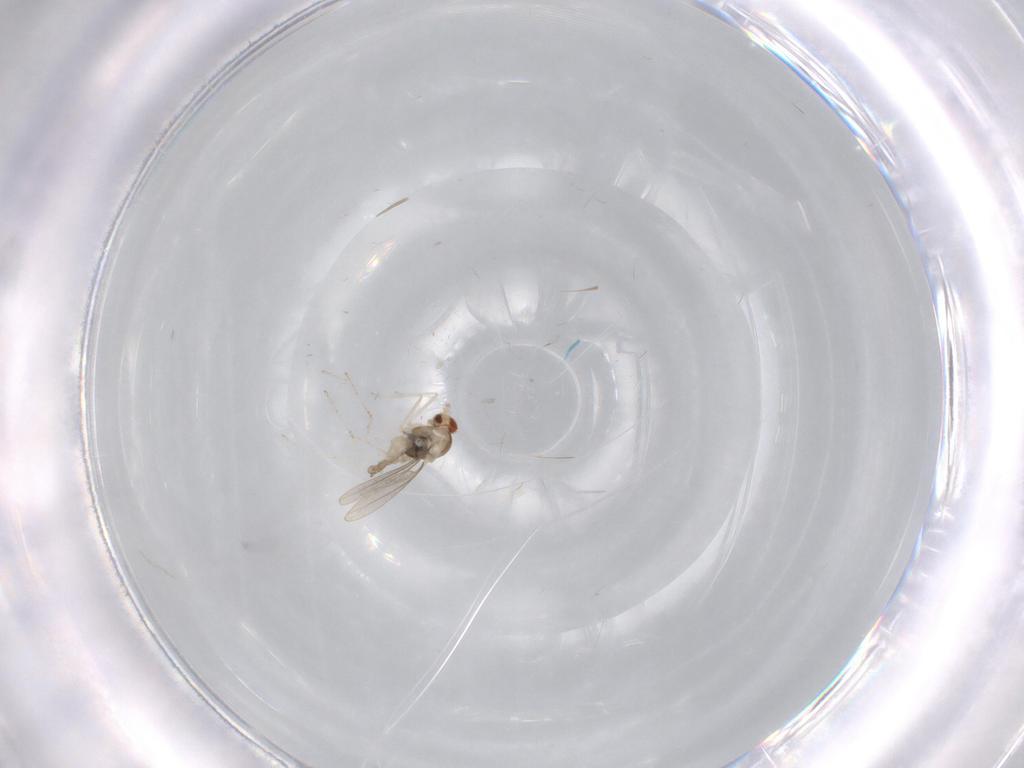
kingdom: Animalia
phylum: Arthropoda
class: Insecta
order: Diptera
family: Cecidomyiidae
